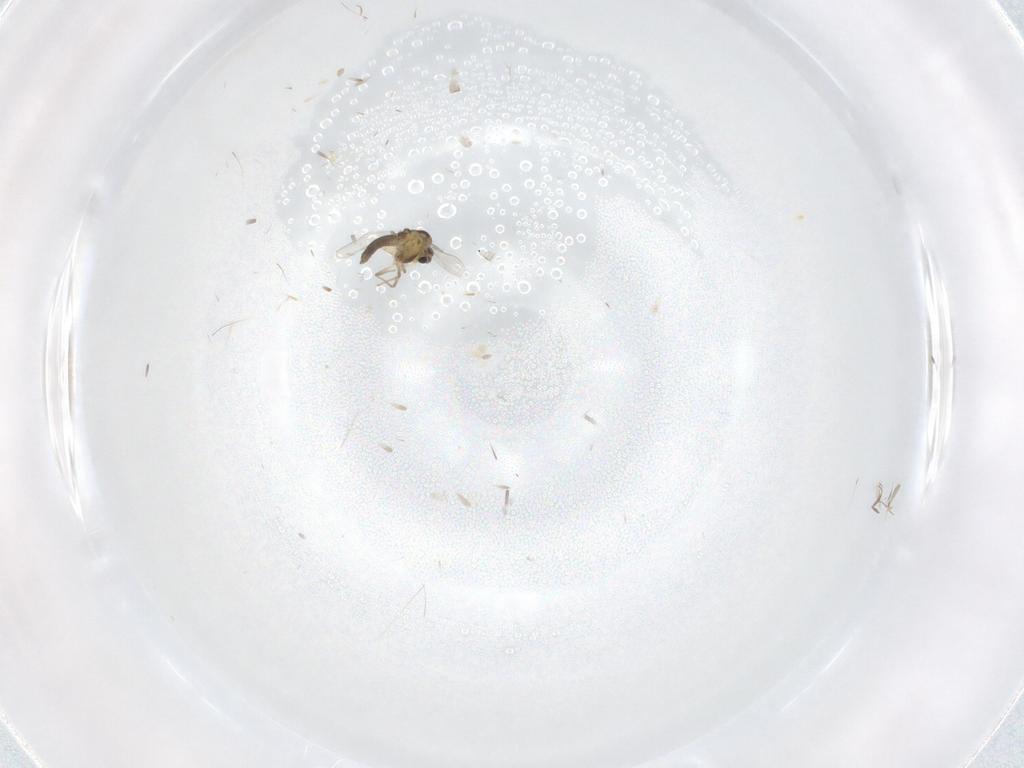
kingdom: Animalia
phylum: Arthropoda
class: Insecta
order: Diptera
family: Chironomidae
